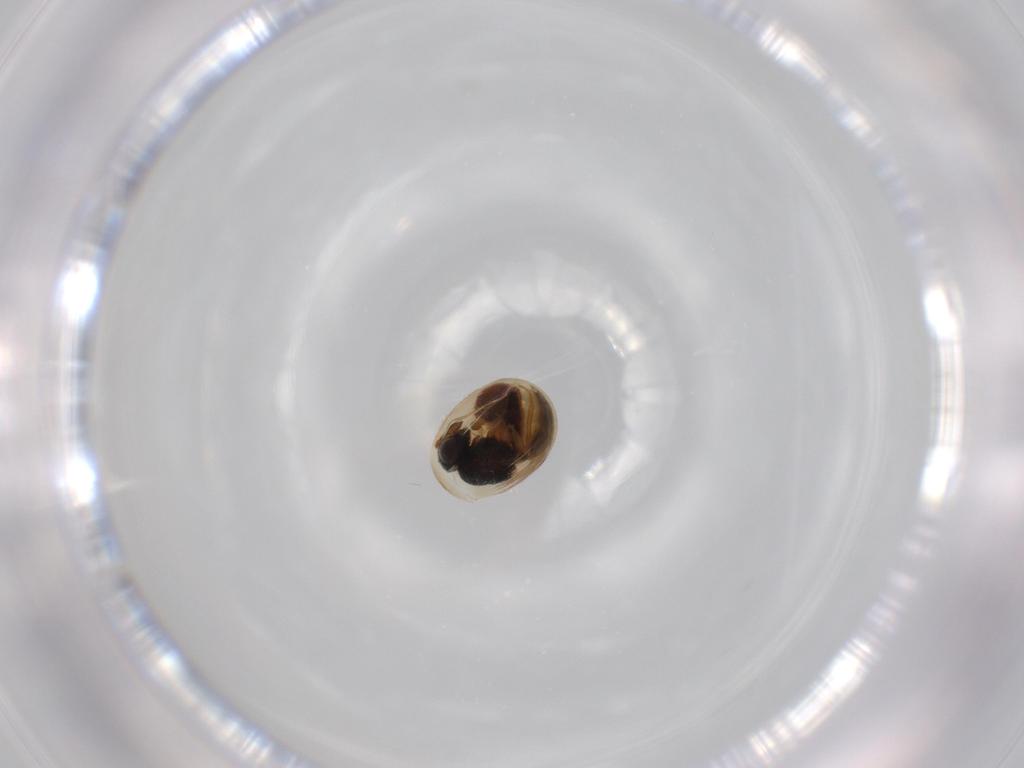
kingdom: Animalia
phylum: Arthropoda
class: Insecta
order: Hymenoptera
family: Scelionidae
